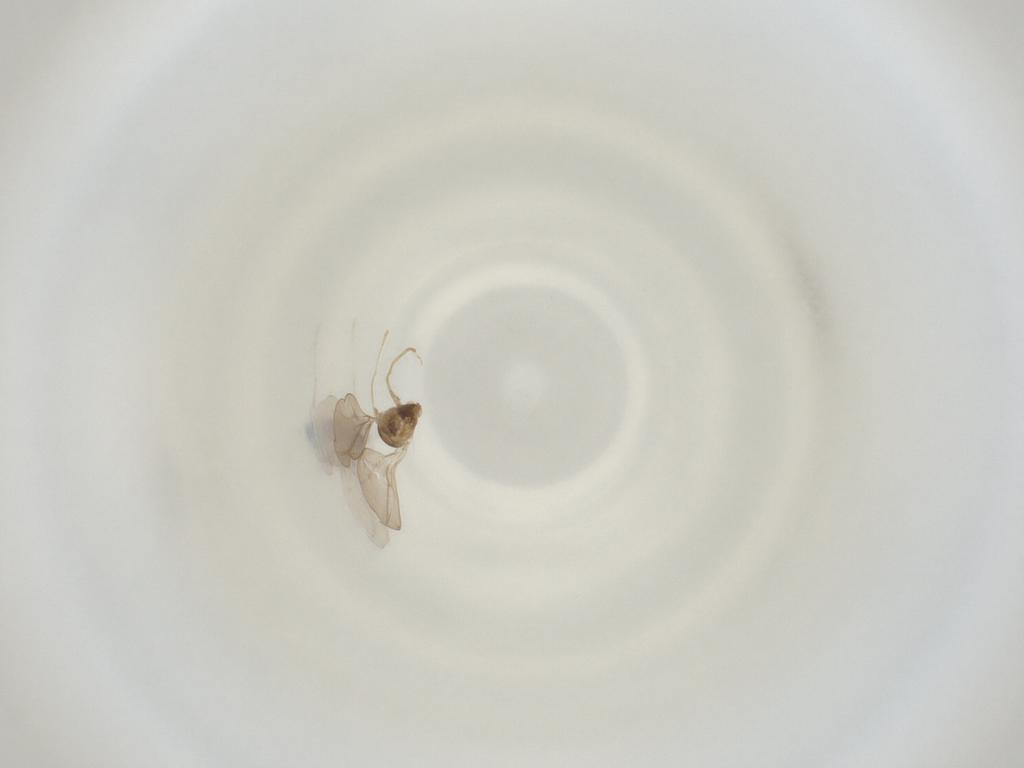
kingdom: Animalia
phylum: Arthropoda
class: Insecta
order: Diptera
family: Cecidomyiidae
